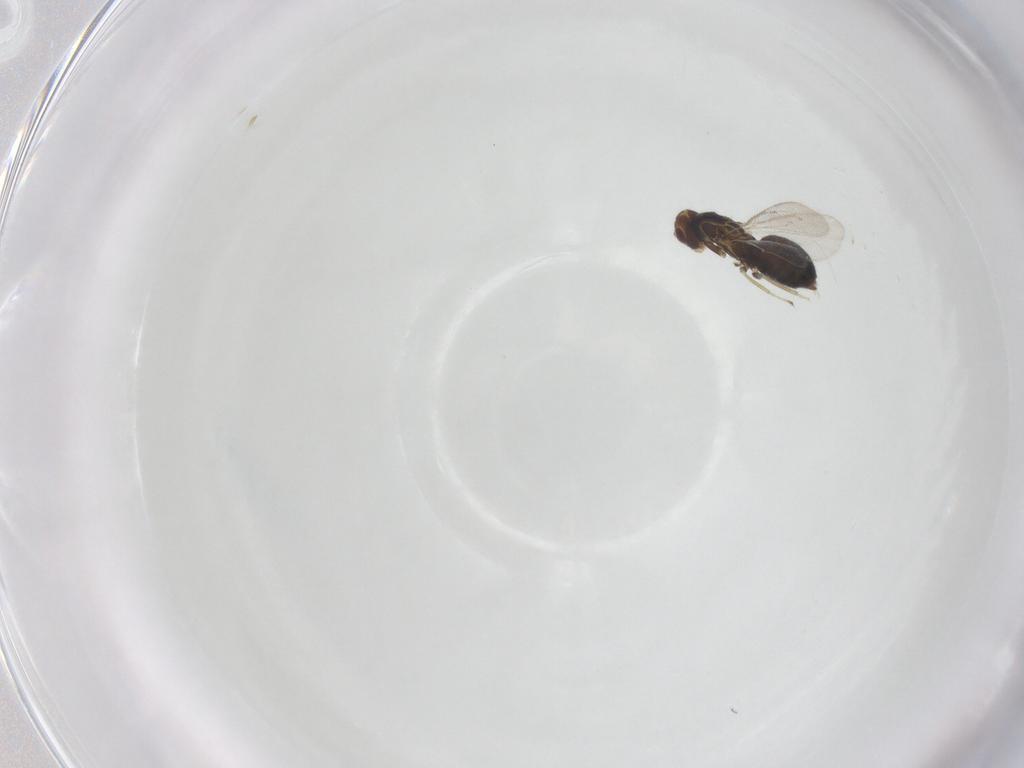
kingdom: Animalia
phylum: Arthropoda
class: Insecta
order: Hymenoptera
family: Eulophidae
